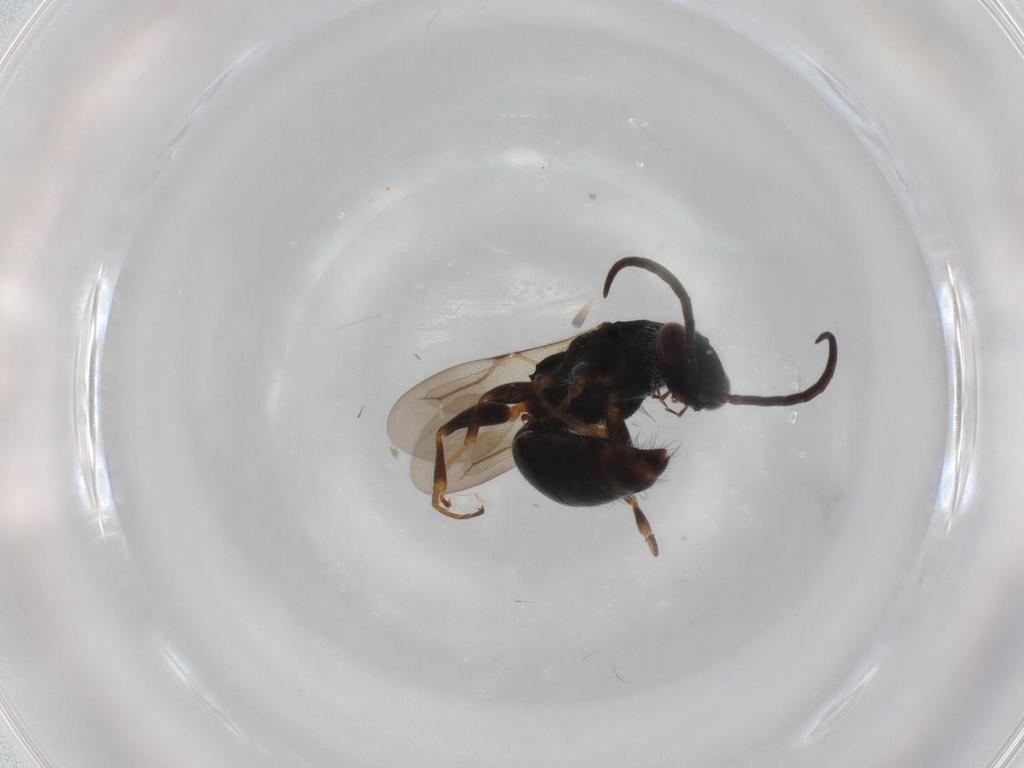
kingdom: Animalia
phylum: Arthropoda
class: Insecta
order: Hymenoptera
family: Bethylidae
